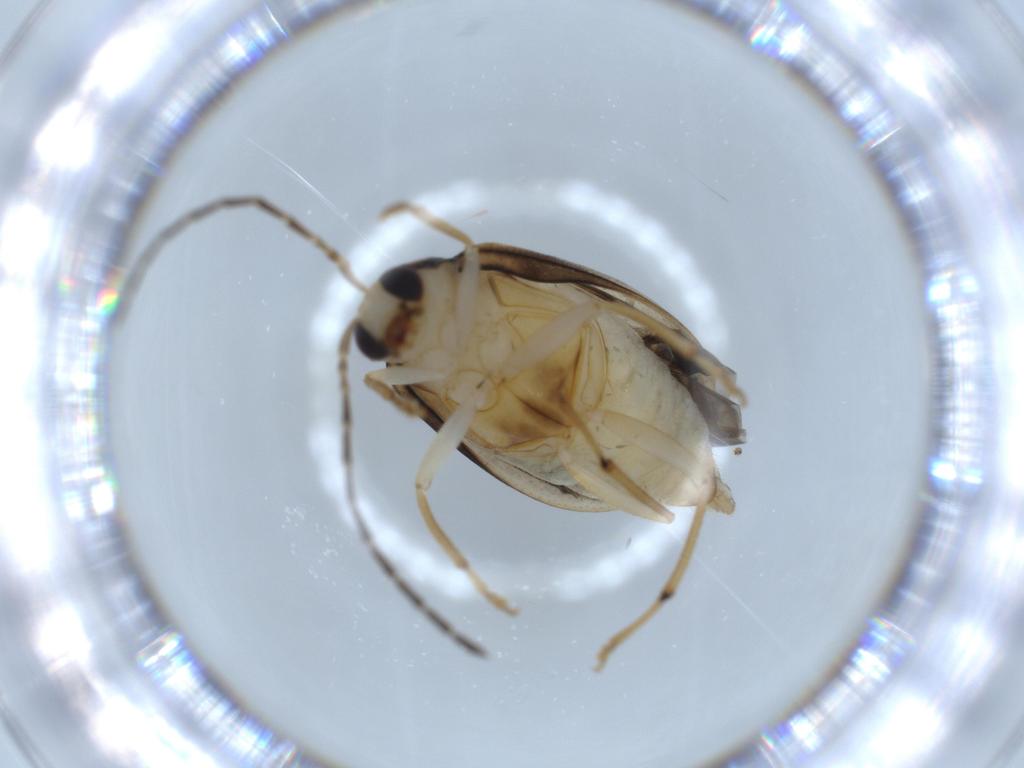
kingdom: Animalia
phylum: Arthropoda
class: Insecta
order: Coleoptera
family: Chrysomelidae
